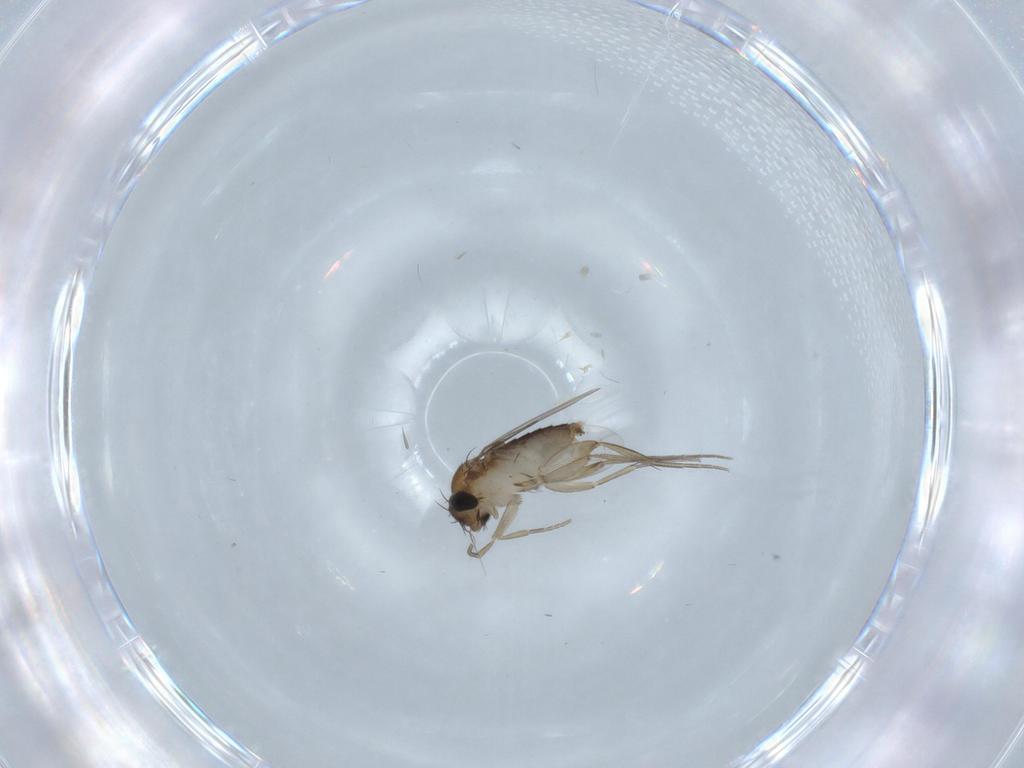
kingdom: Animalia
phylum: Arthropoda
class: Insecta
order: Diptera
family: Phoridae
